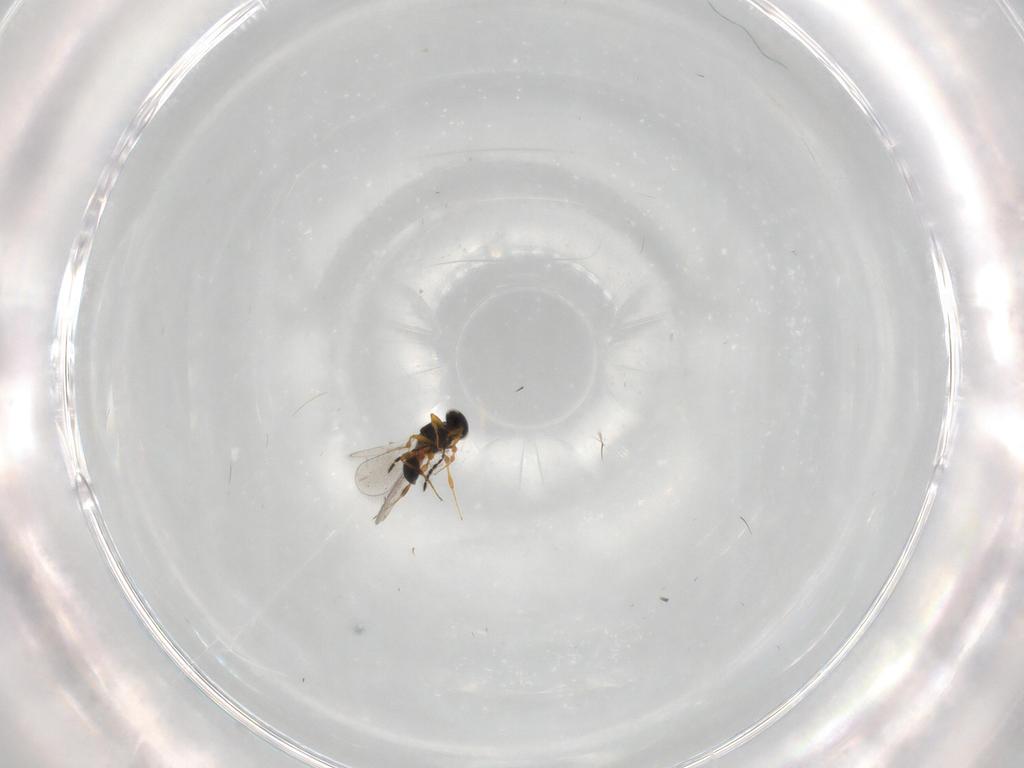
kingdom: Animalia
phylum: Arthropoda
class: Insecta
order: Hymenoptera
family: Platygastridae
